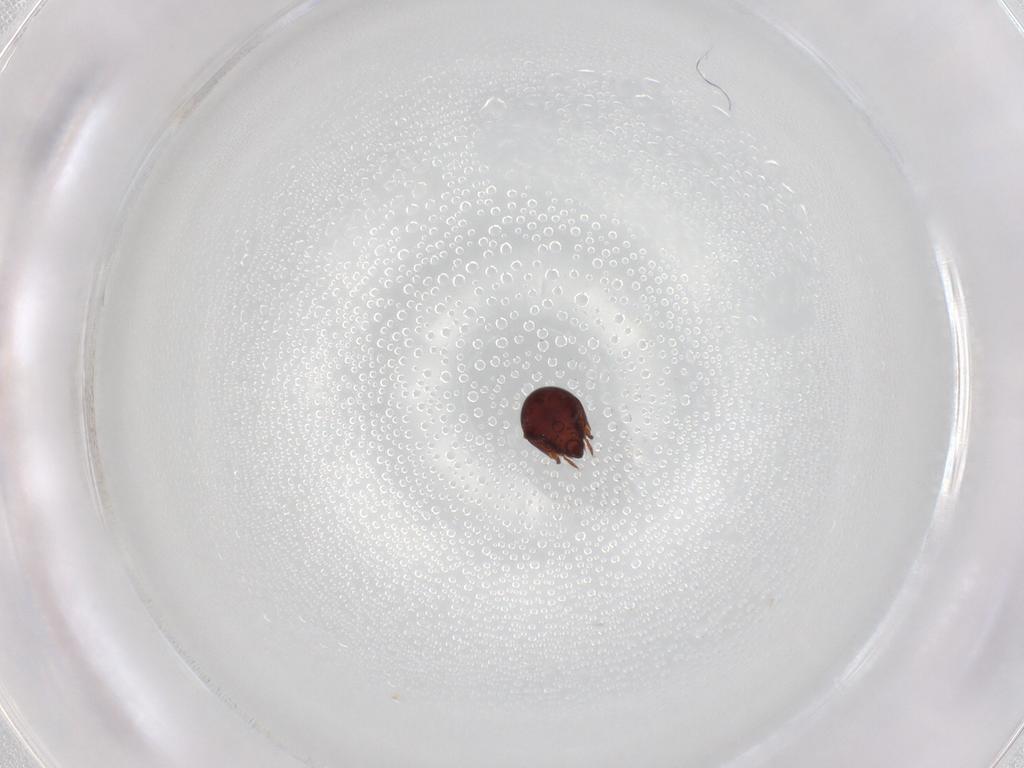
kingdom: Animalia
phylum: Arthropoda
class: Arachnida
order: Sarcoptiformes
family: Humerobatidae
